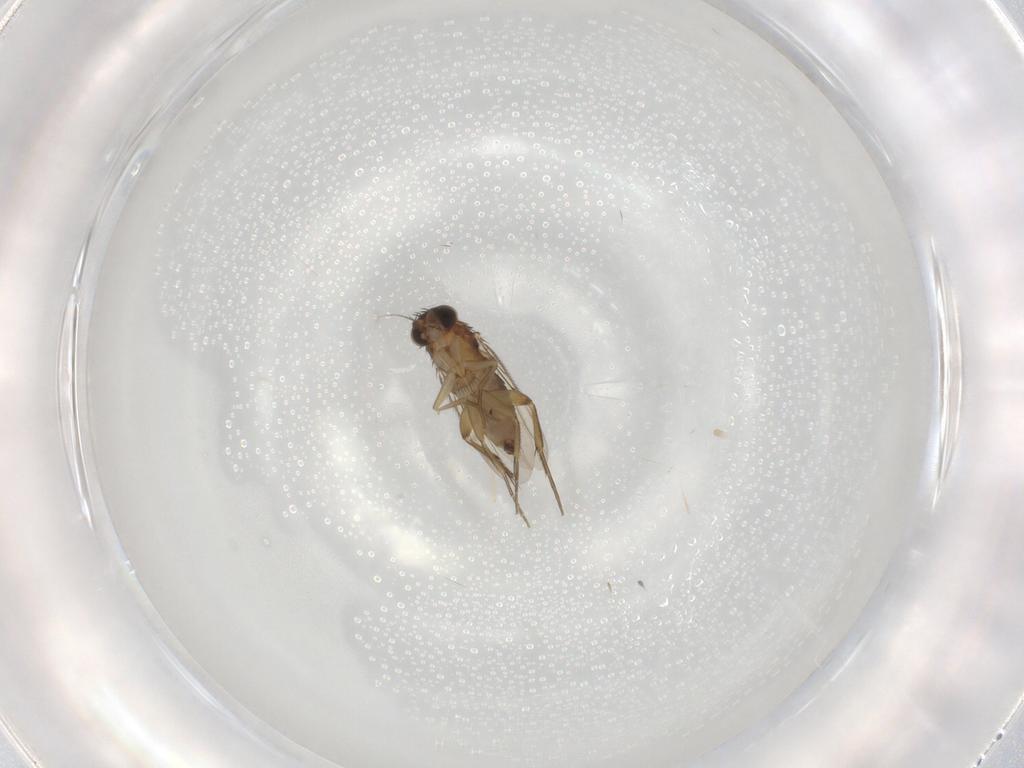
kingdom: Animalia
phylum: Arthropoda
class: Insecta
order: Diptera
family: Phoridae
